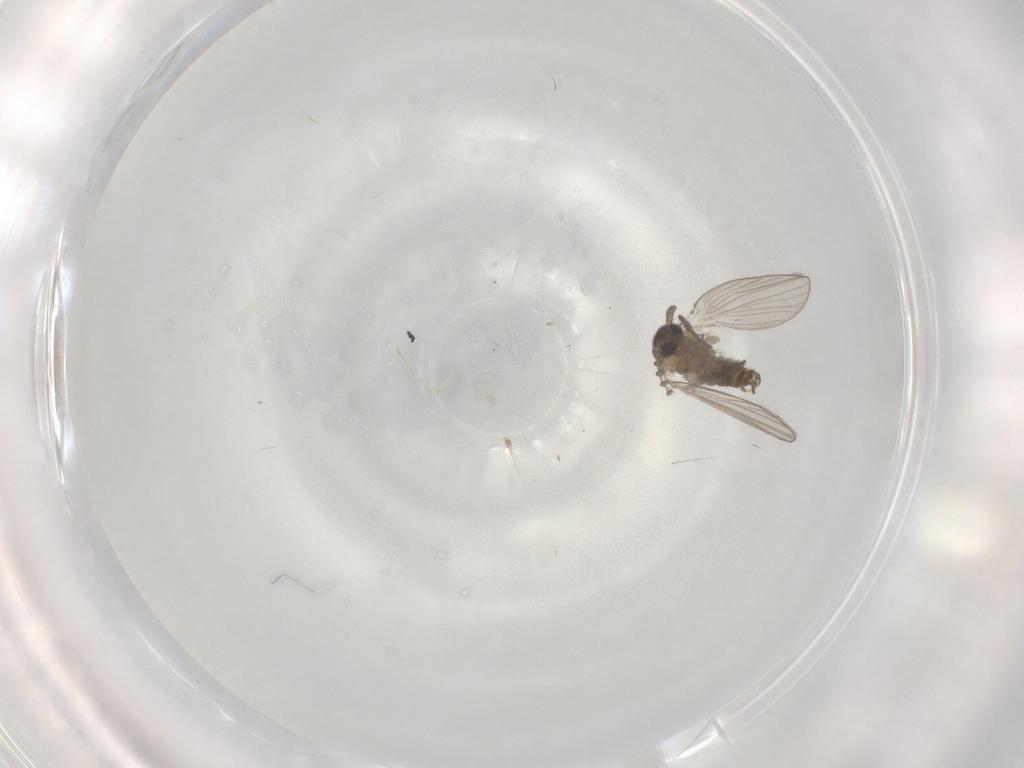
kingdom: Animalia
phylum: Arthropoda
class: Insecta
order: Diptera
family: Psychodidae
